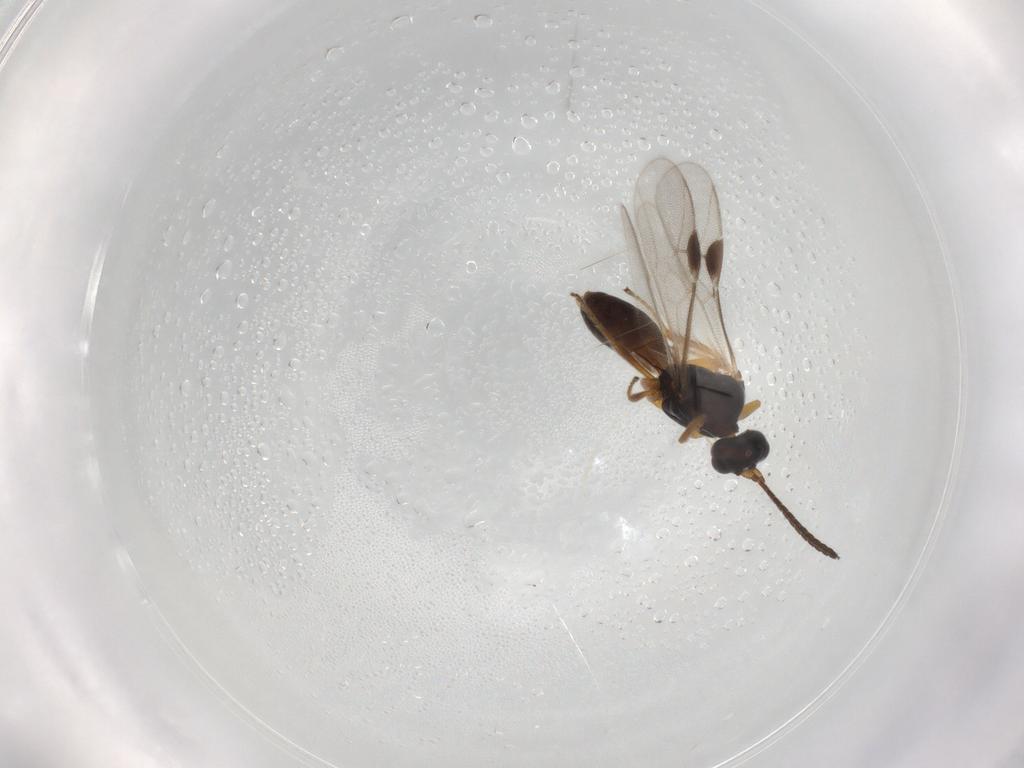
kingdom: Animalia
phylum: Arthropoda
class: Insecta
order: Hymenoptera
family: Braconidae
